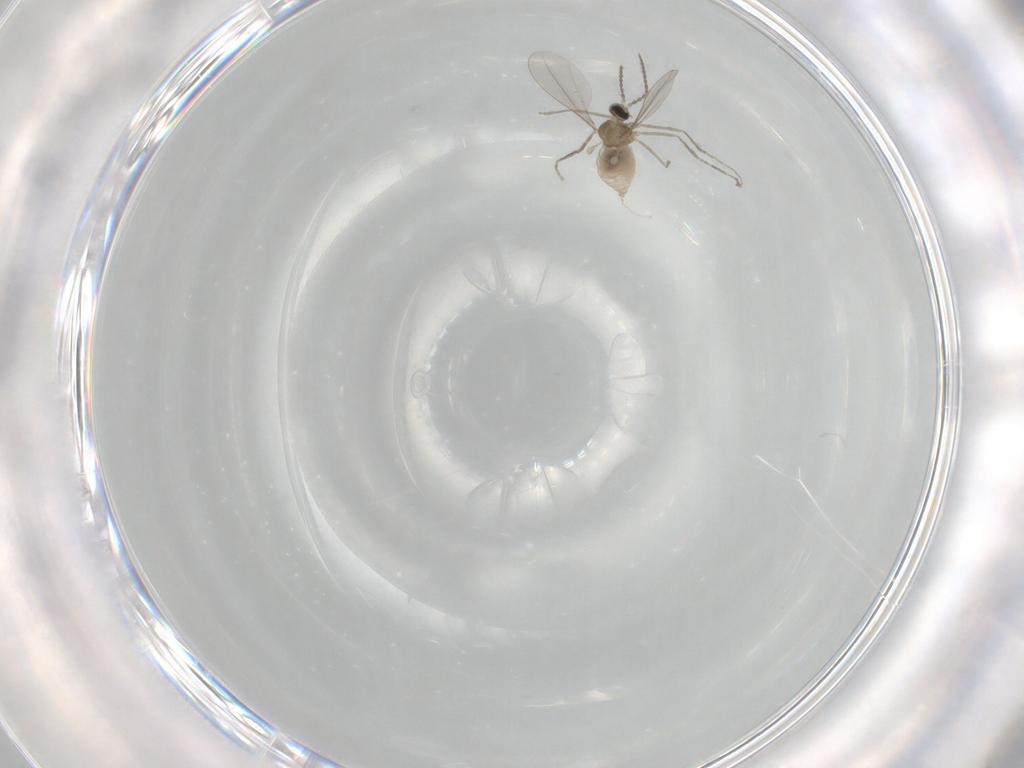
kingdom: Animalia
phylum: Arthropoda
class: Insecta
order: Diptera
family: Cecidomyiidae
